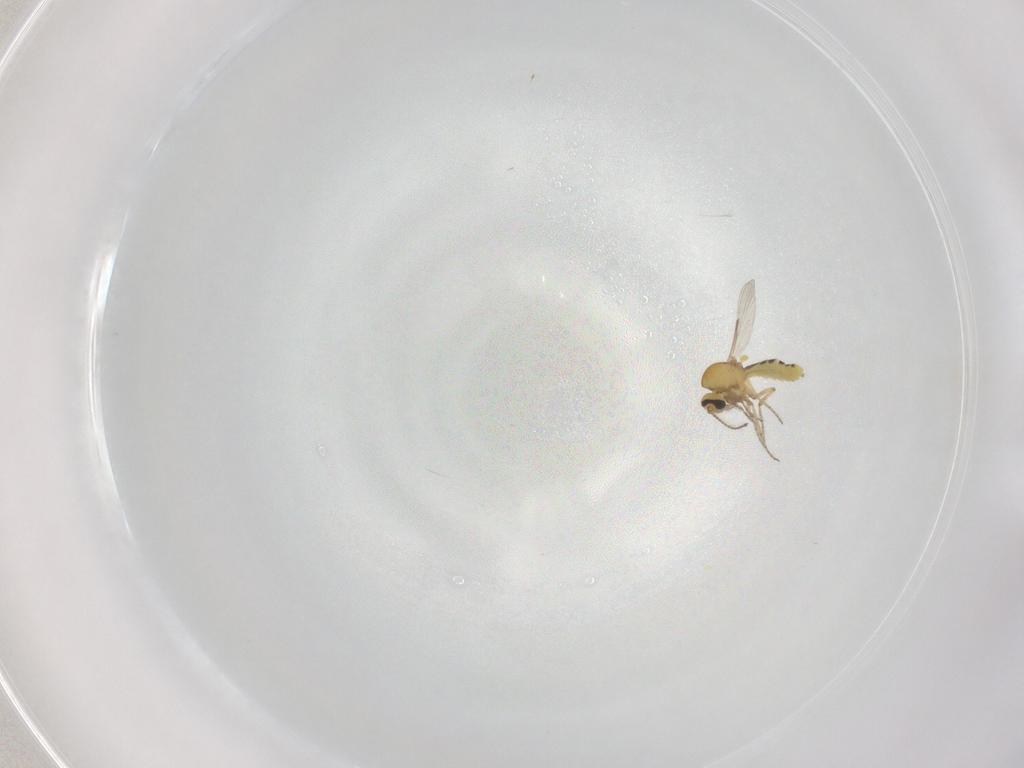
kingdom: Animalia
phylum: Arthropoda
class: Insecta
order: Diptera
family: Ceratopogonidae
